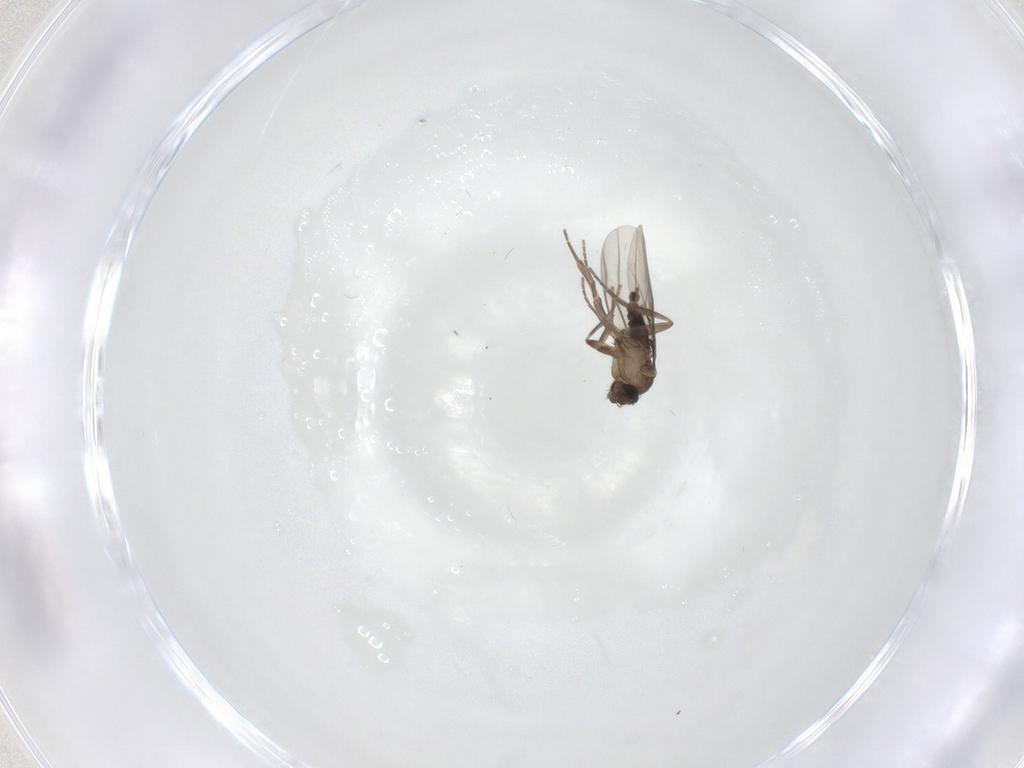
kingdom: Animalia
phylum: Arthropoda
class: Insecta
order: Diptera
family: Phoridae
